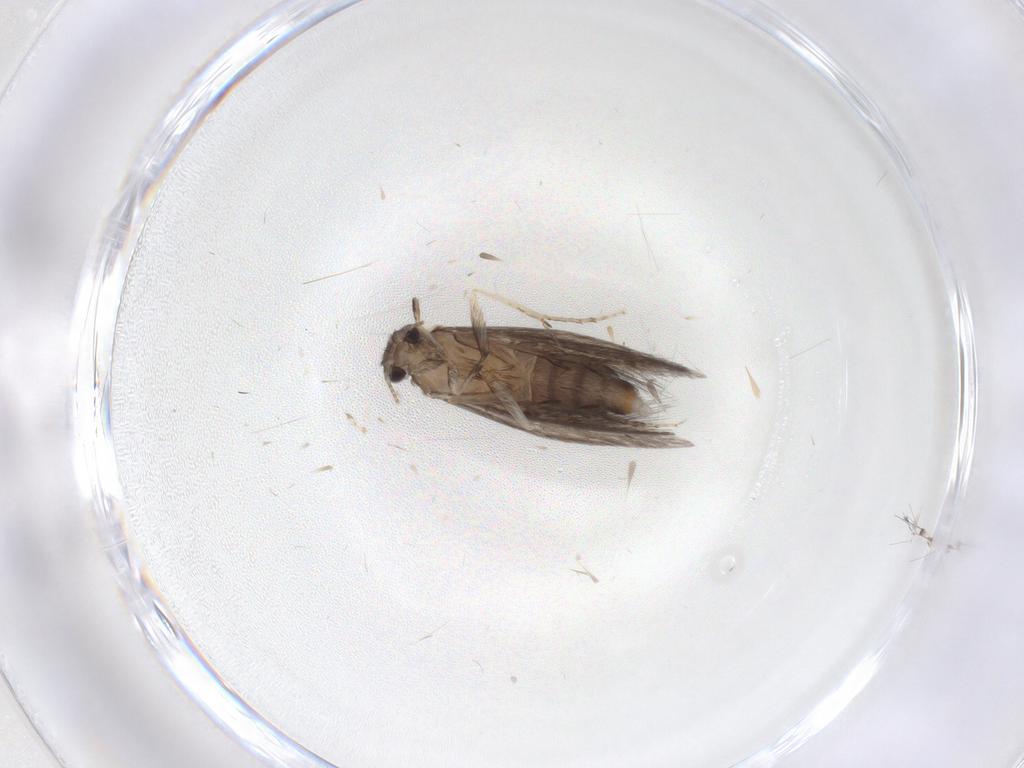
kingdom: Animalia
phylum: Arthropoda
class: Insecta
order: Trichoptera
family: Hydroptilidae
